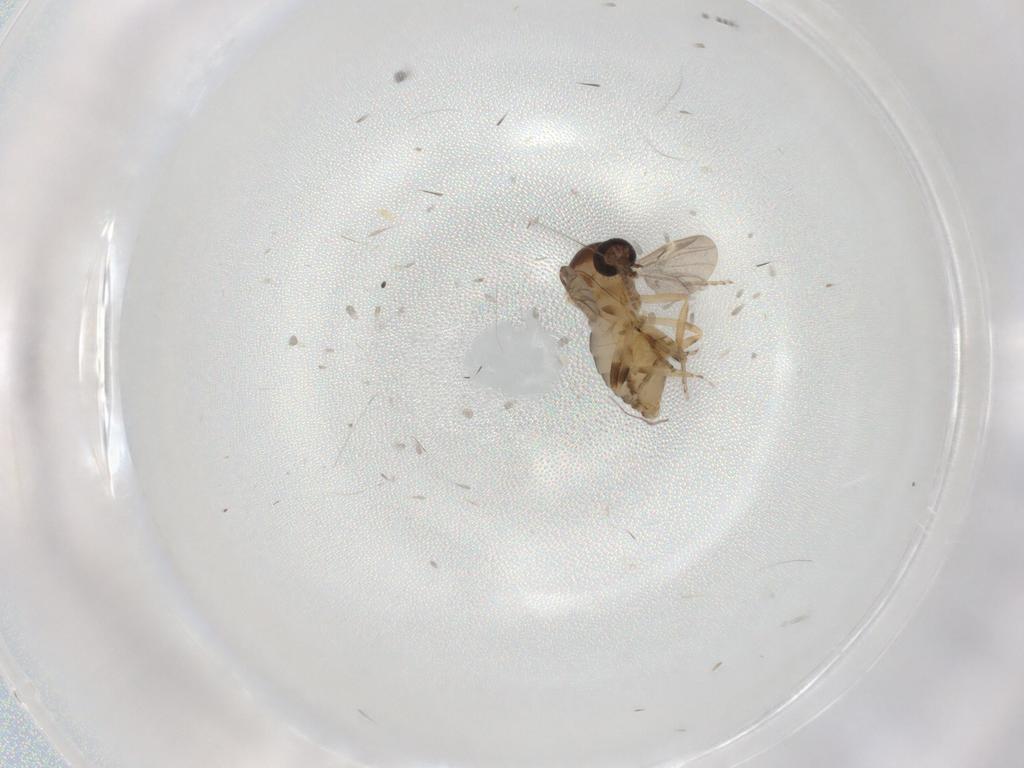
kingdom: Animalia
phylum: Arthropoda
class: Insecta
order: Diptera
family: Ceratopogonidae
